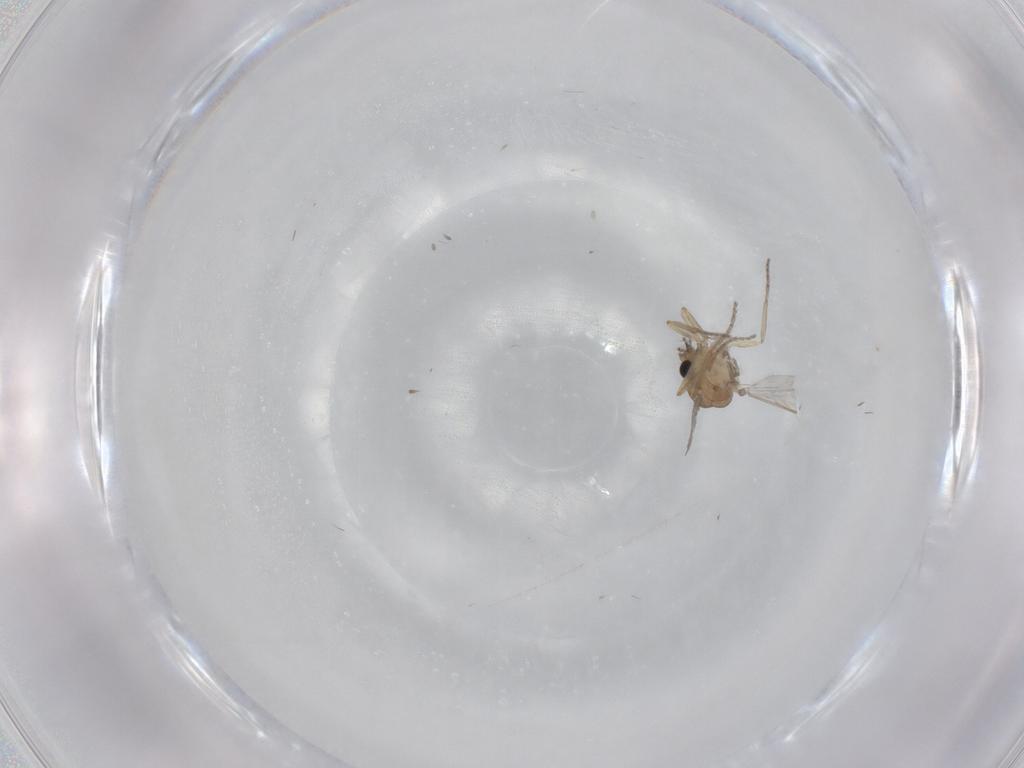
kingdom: Animalia
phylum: Arthropoda
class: Insecta
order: Diptera
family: Ceratopogonidae
